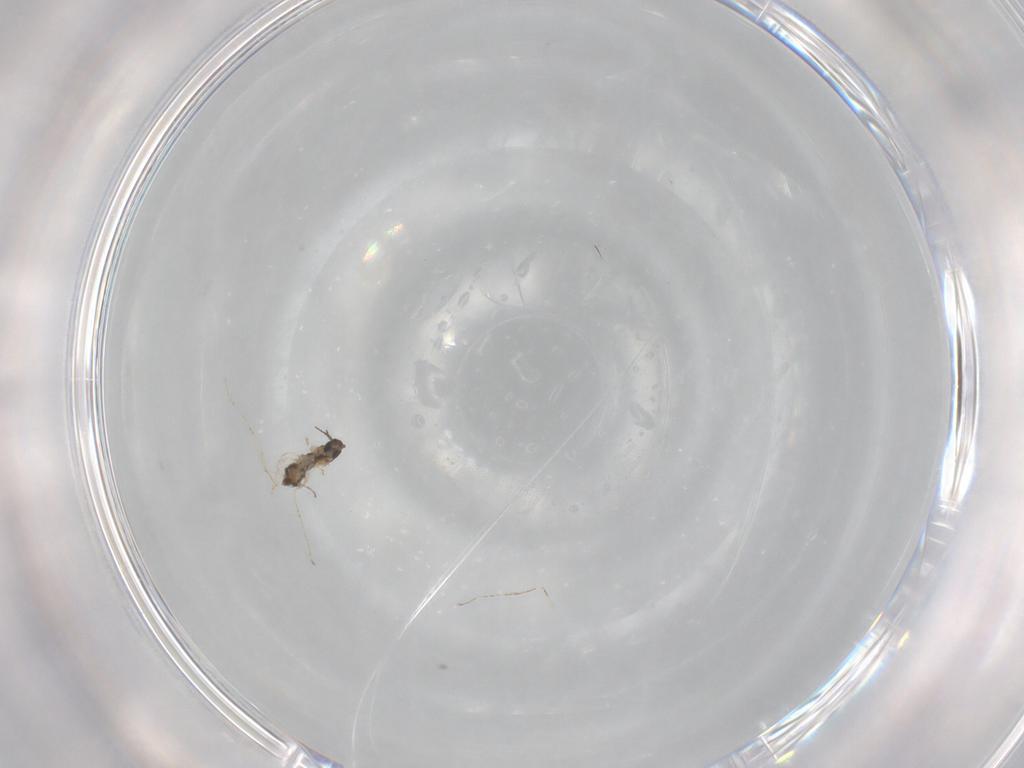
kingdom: Animalia
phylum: Arthropoda
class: Insecta
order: Diptera
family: Cecidomyiidae
